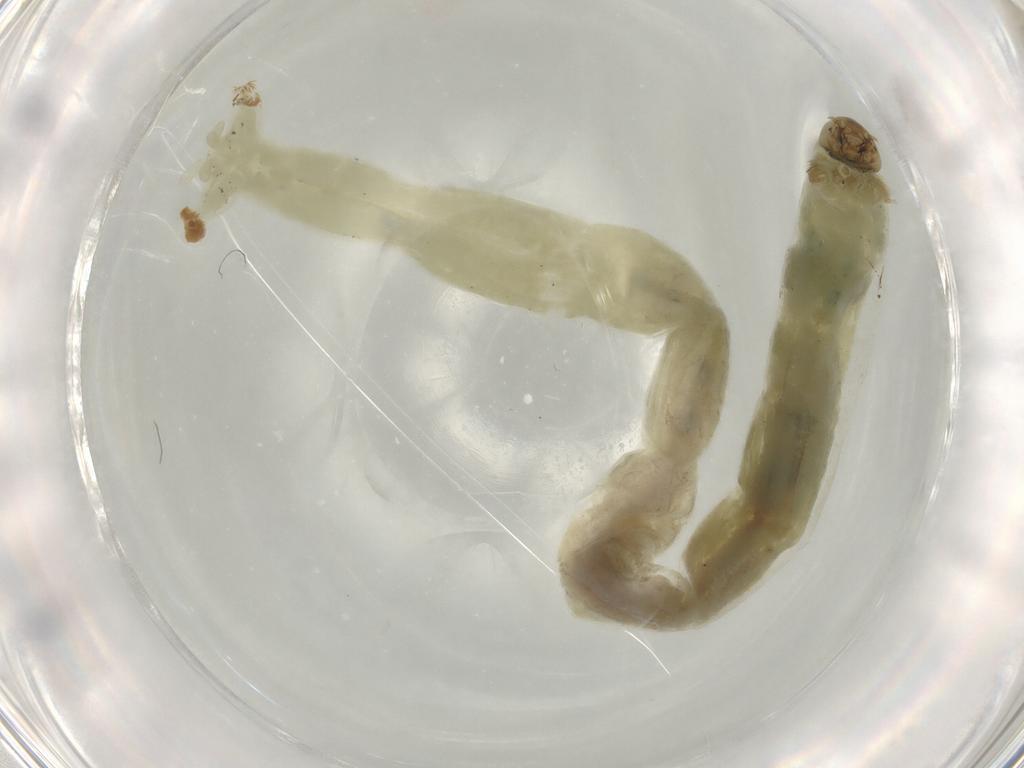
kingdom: Animalia
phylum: Arthropoda
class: Insecta
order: Diptera
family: Chironomidae
